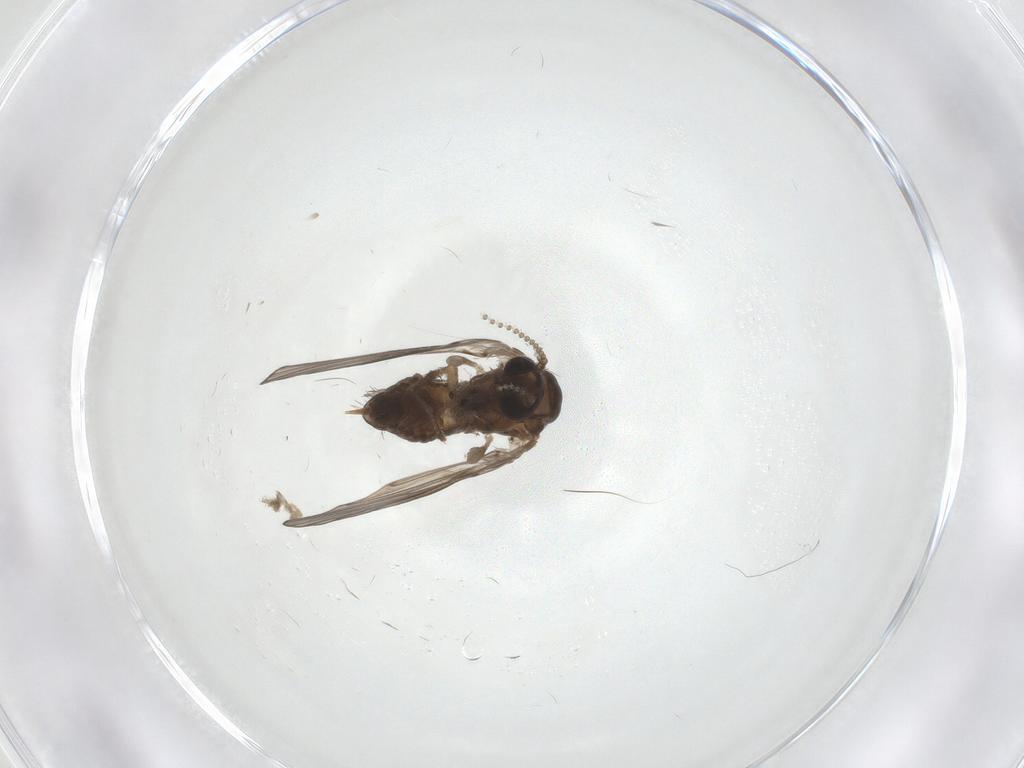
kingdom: Animalia
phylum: Arthropoda
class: Insecta
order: Diptera
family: Psychodidae
